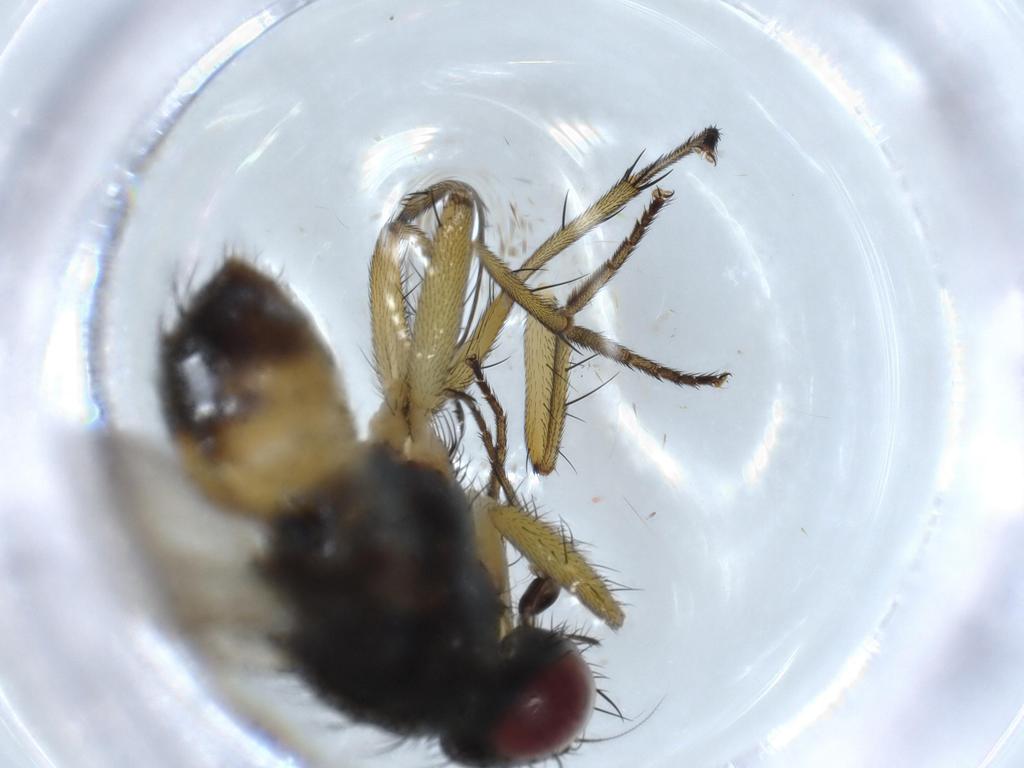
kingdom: Animalia
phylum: Arthropoda
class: Insecta
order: Diptera
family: Muscidae
